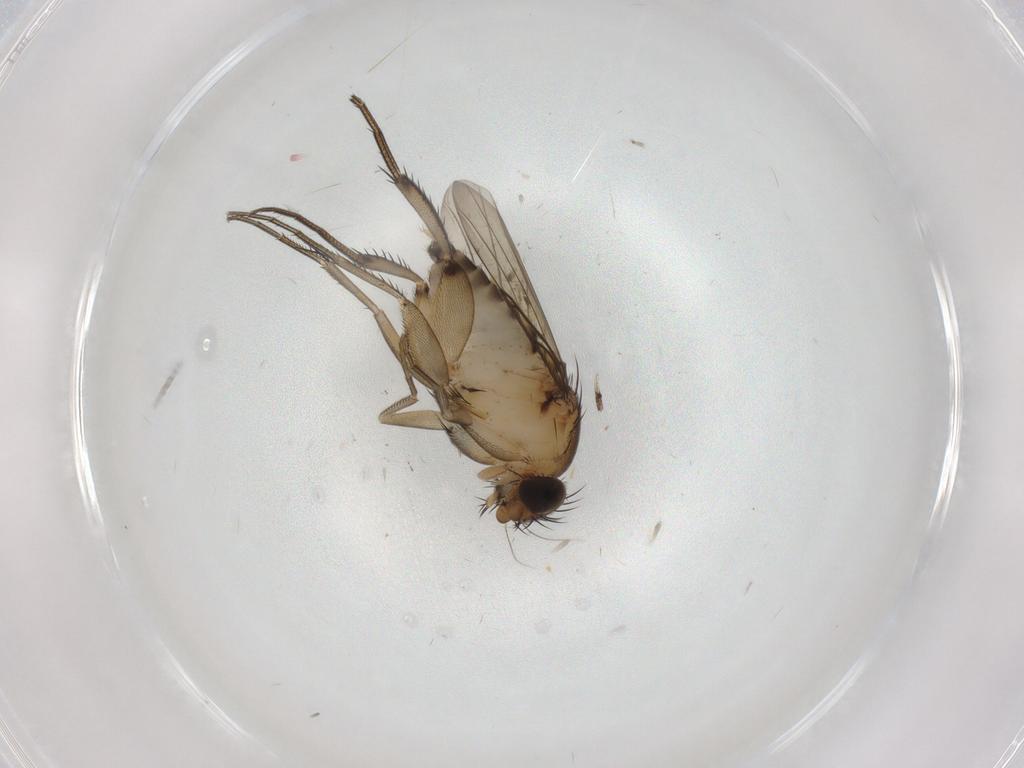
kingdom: Animalia
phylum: Arthropoda
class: Insecta
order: Diptera
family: Phoridae
